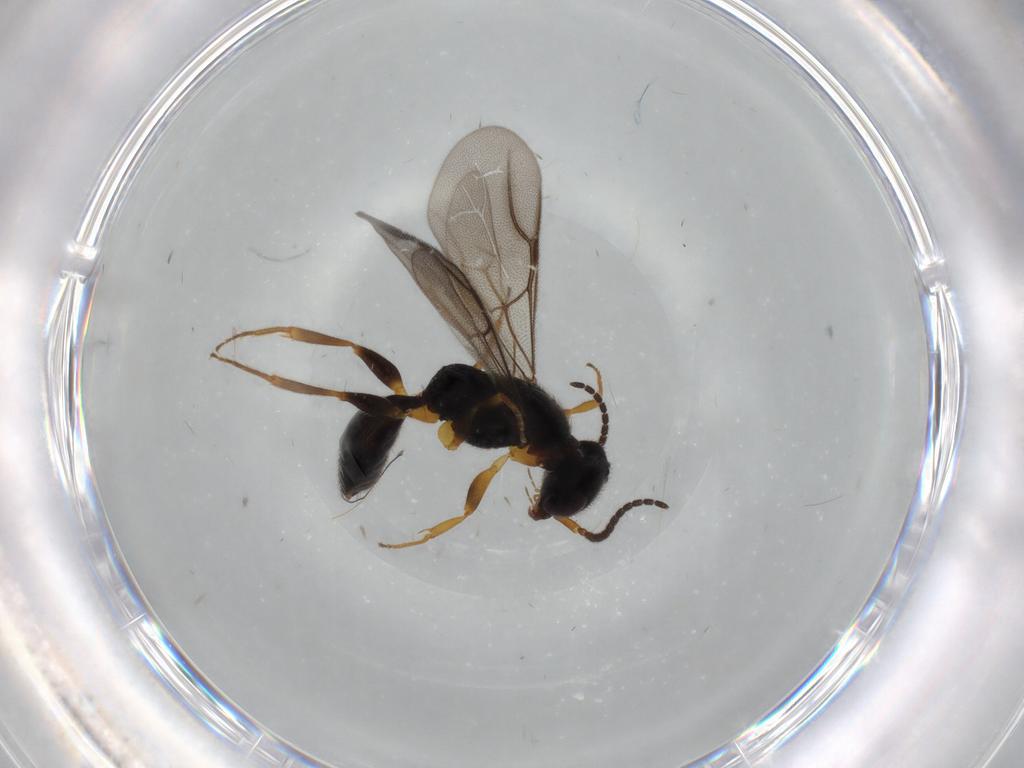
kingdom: Animalia
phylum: Arthropoda
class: Insecta
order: Hymenoptera
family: Bethylidae
